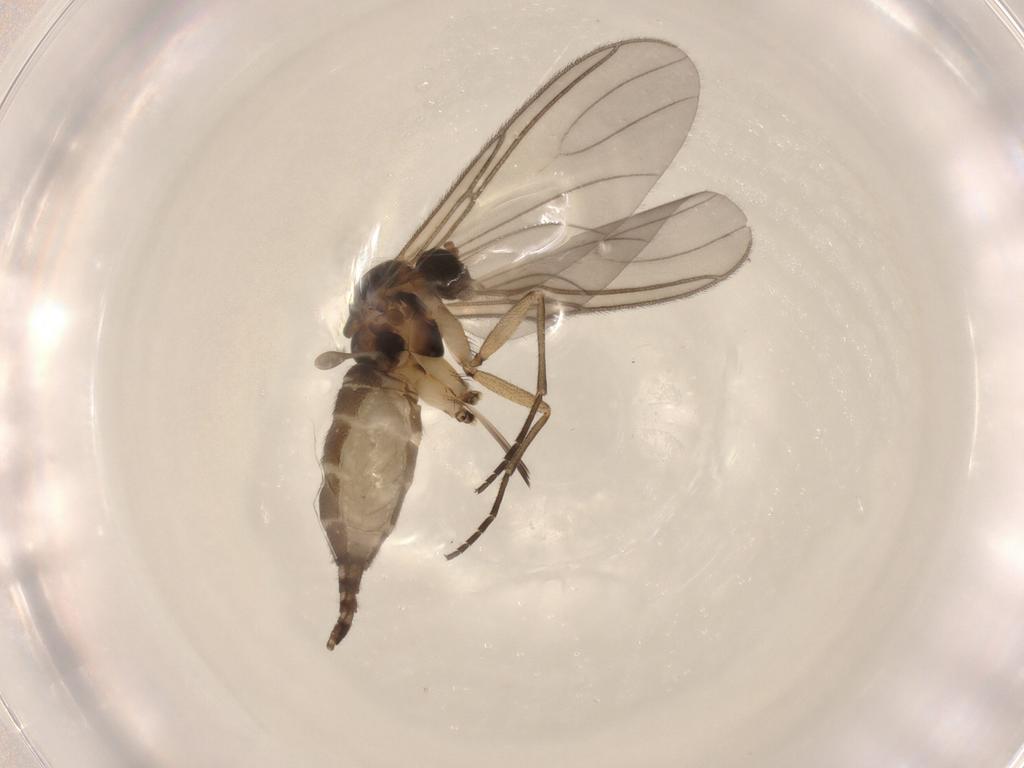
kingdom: Animalia
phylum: Arthropoda
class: Insecta
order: Diptera
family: Sciaridae
